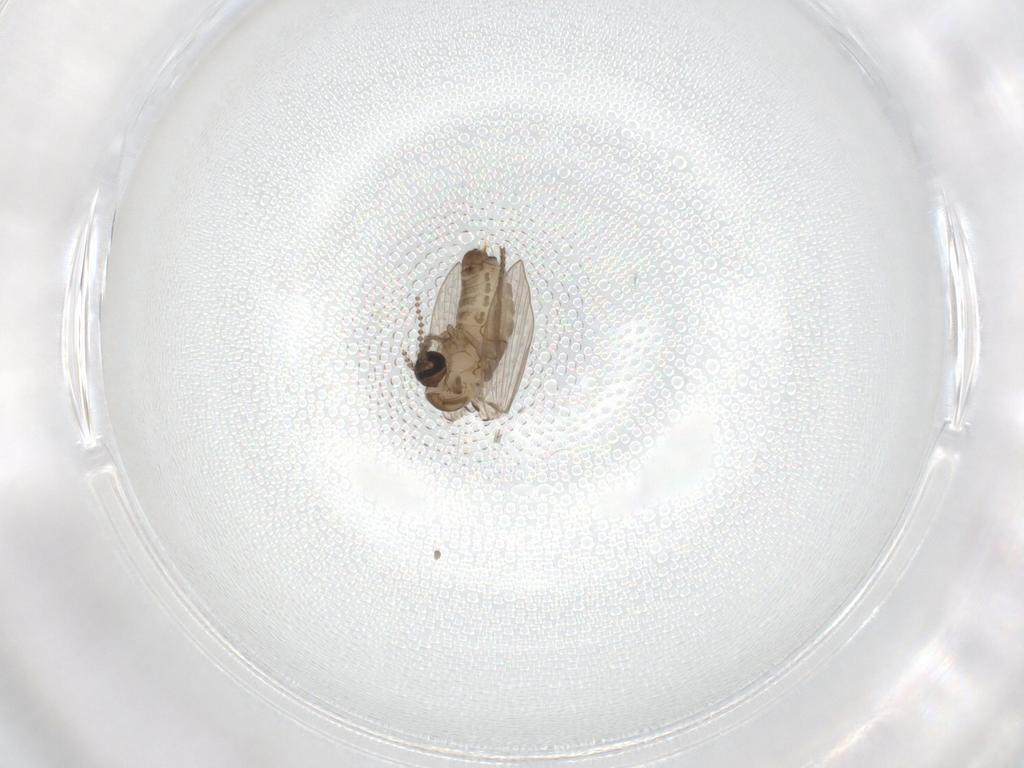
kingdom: Animalia
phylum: Arthropoda
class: Insecta
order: Diptera
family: Psychodidae
